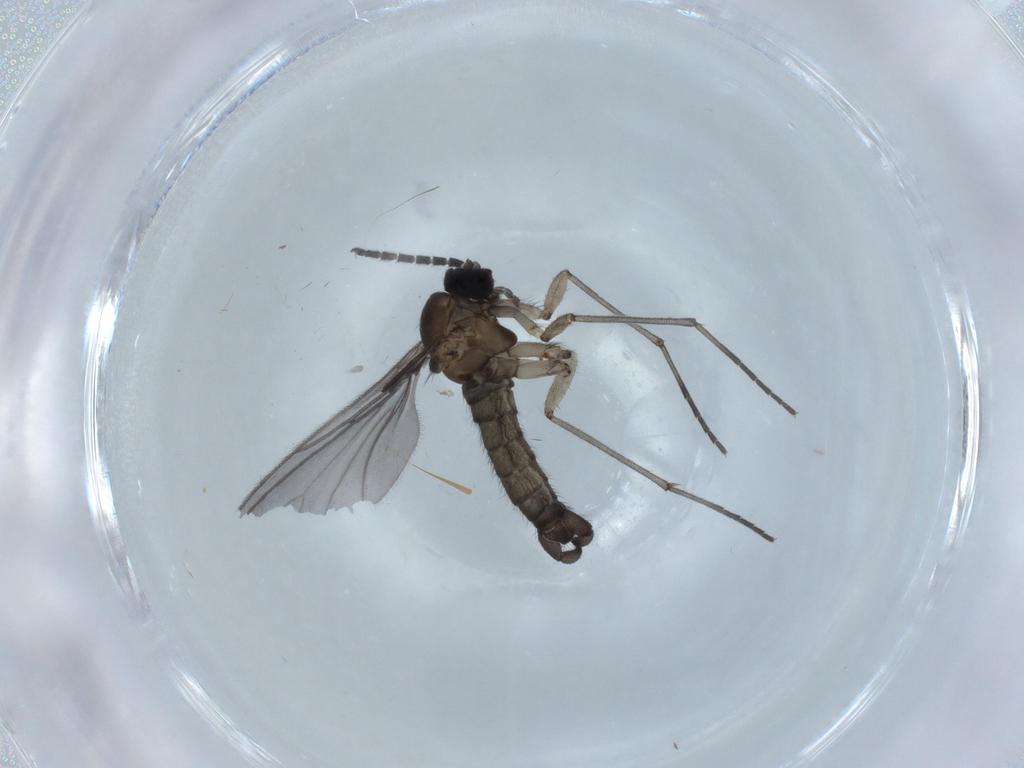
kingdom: Animalia
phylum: Arthropoda
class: Insecta
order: Diptera
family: Sciaridae
